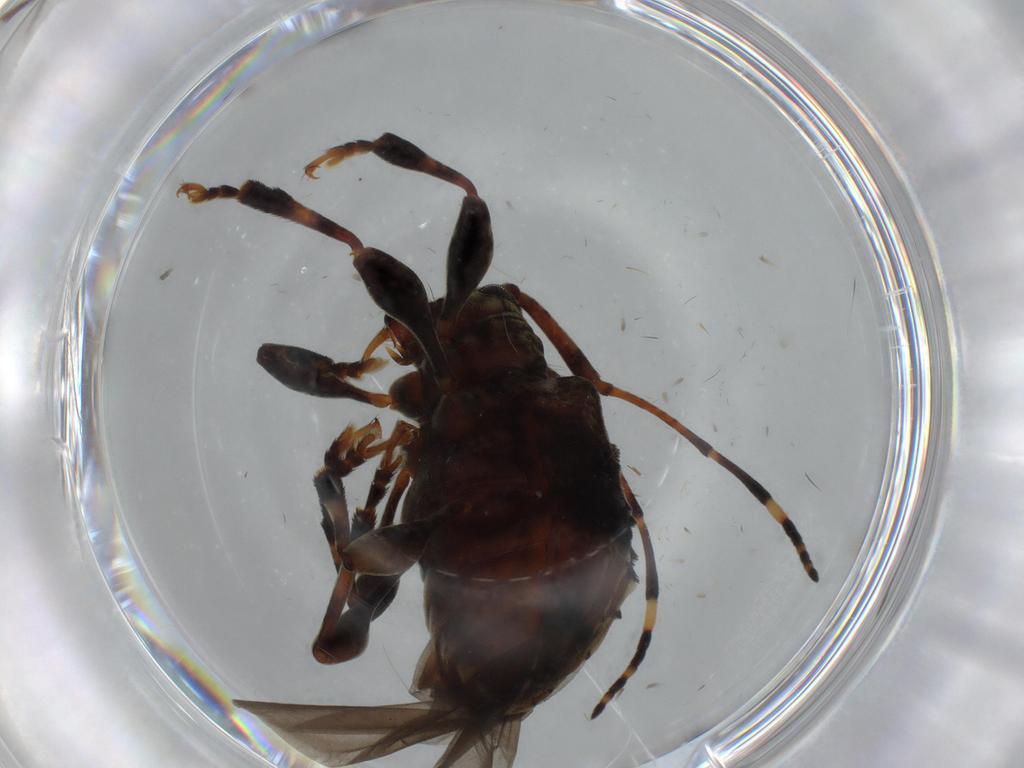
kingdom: Animalia
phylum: Arthropoda
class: Insecta
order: Coleoptera
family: Cerambycidae
